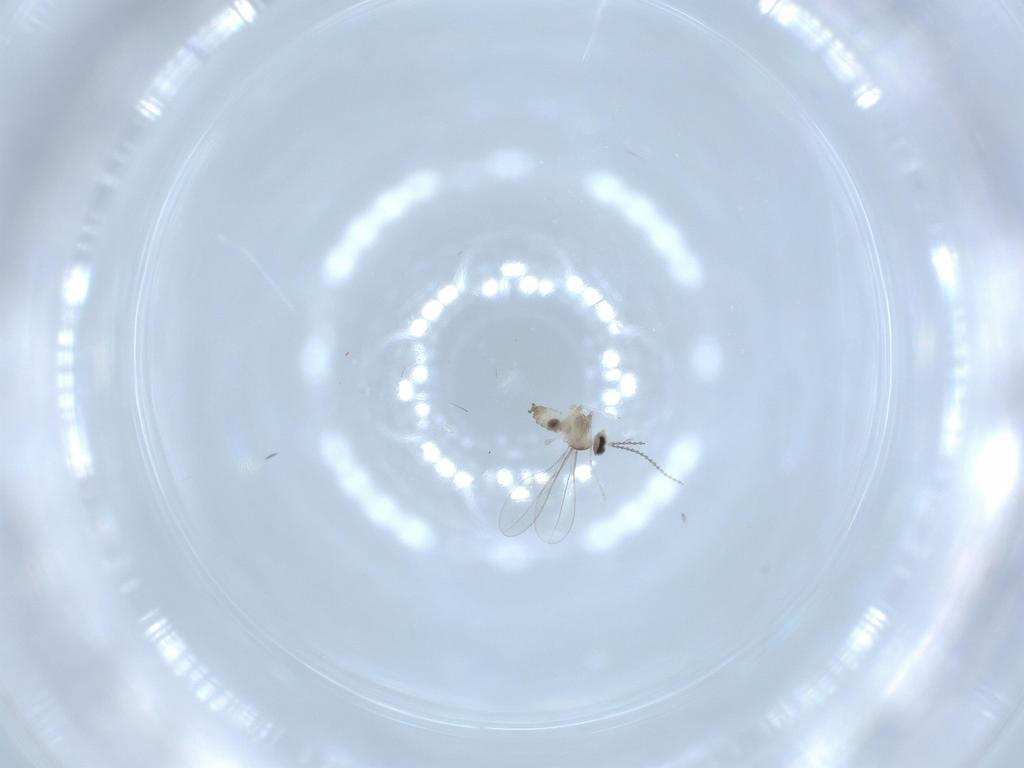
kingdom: Animalia
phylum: Arthropoda
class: Insecta
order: Diptera
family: Cecidomyiidae
